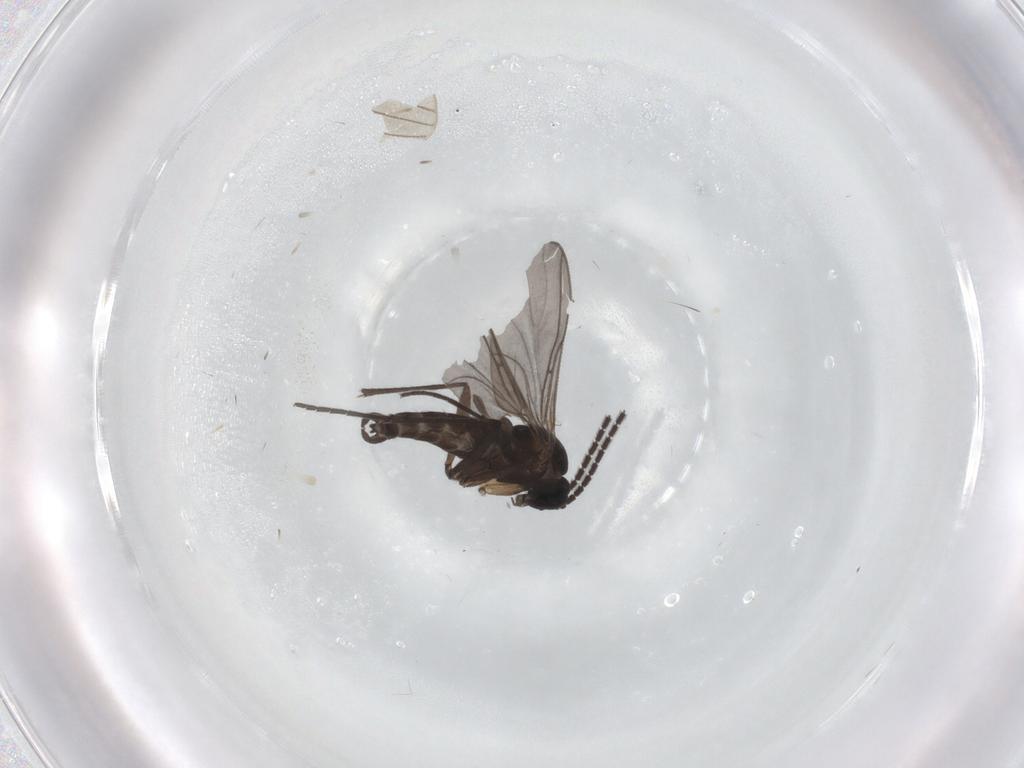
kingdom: Animalia
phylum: Arthropoda
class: Insecta
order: Diptera
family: Sciaridae
